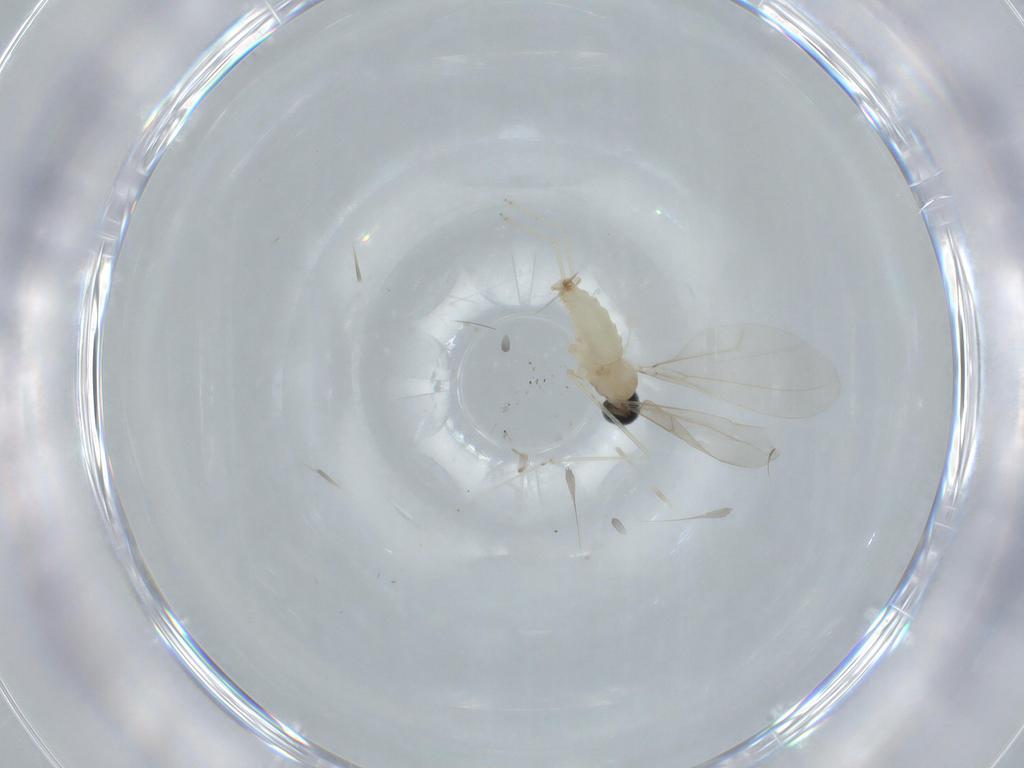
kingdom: Animalia
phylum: Arthropoda
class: Insecta
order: Diptera
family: Cecidomyiidae
